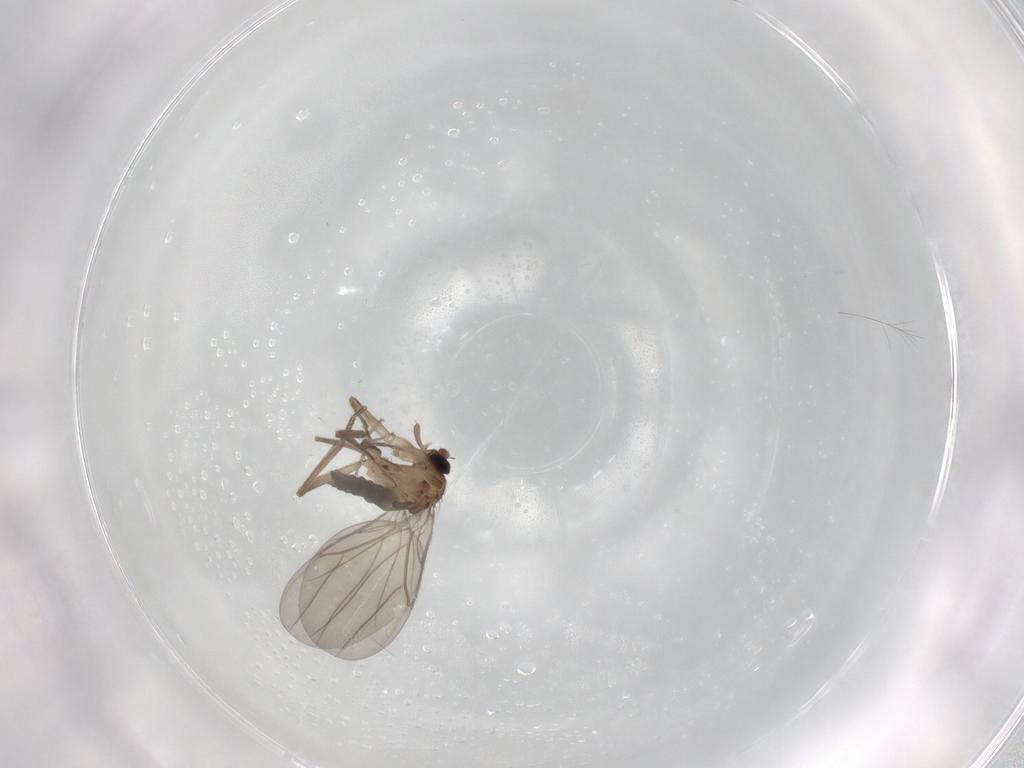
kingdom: Animalia
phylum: Arthropoda
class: Insecta
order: Diptera
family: Phoridae
